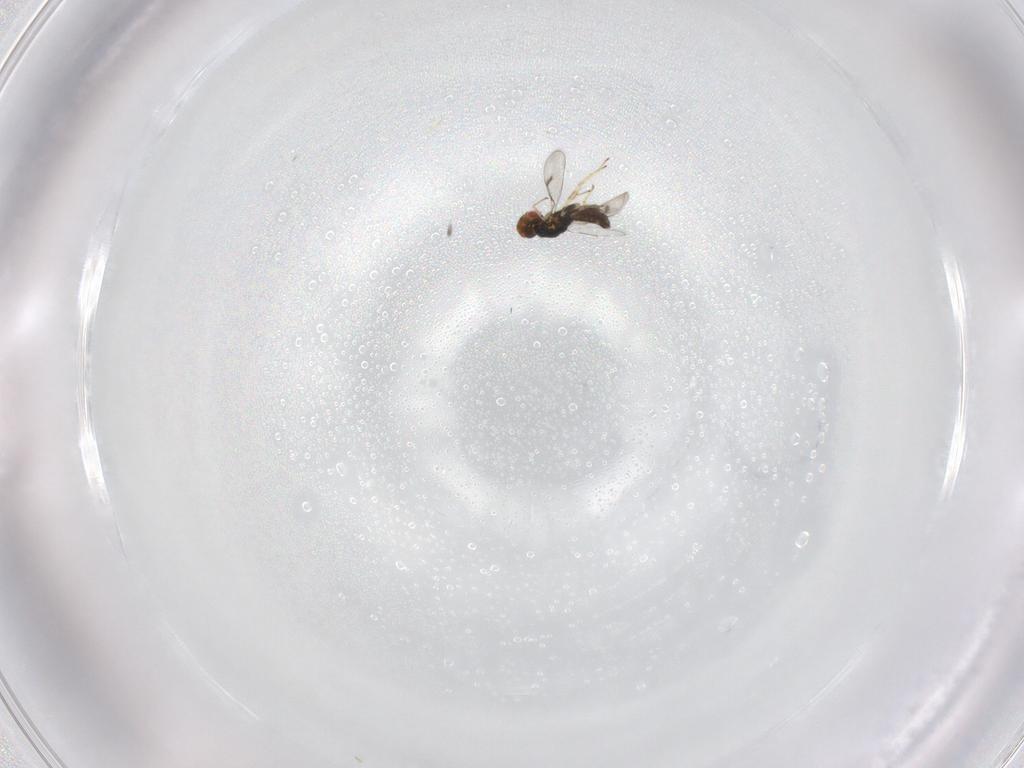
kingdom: Animalia
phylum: Arthropoda
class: Insecta
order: Hymenoptera
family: Eulophidae
